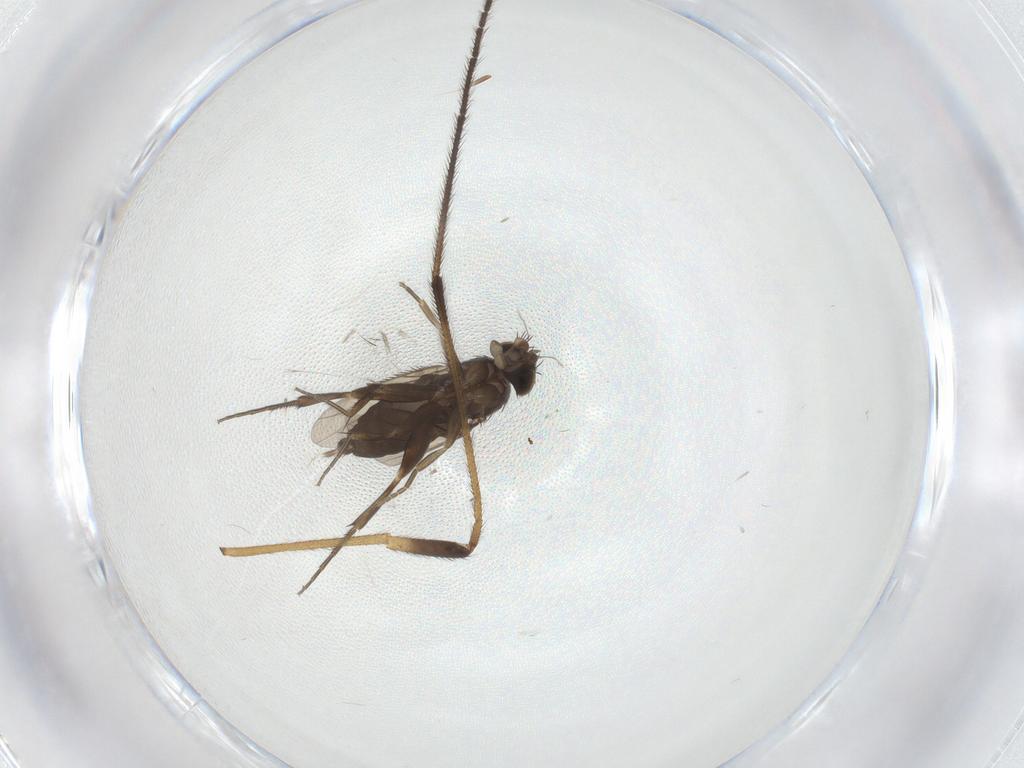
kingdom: Animalia
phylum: Arthropoda
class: Insecta
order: Diptera
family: Phoridae
